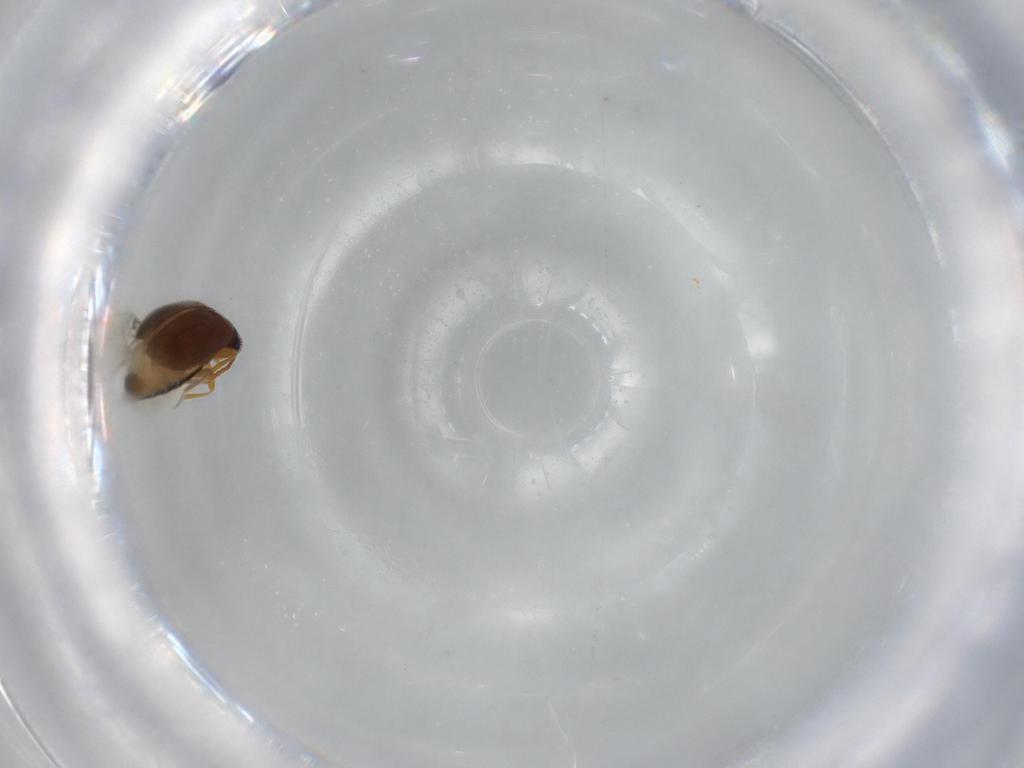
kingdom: Animalia
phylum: Arthropoda
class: Insecta
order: Coleoptera
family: Aderidae
